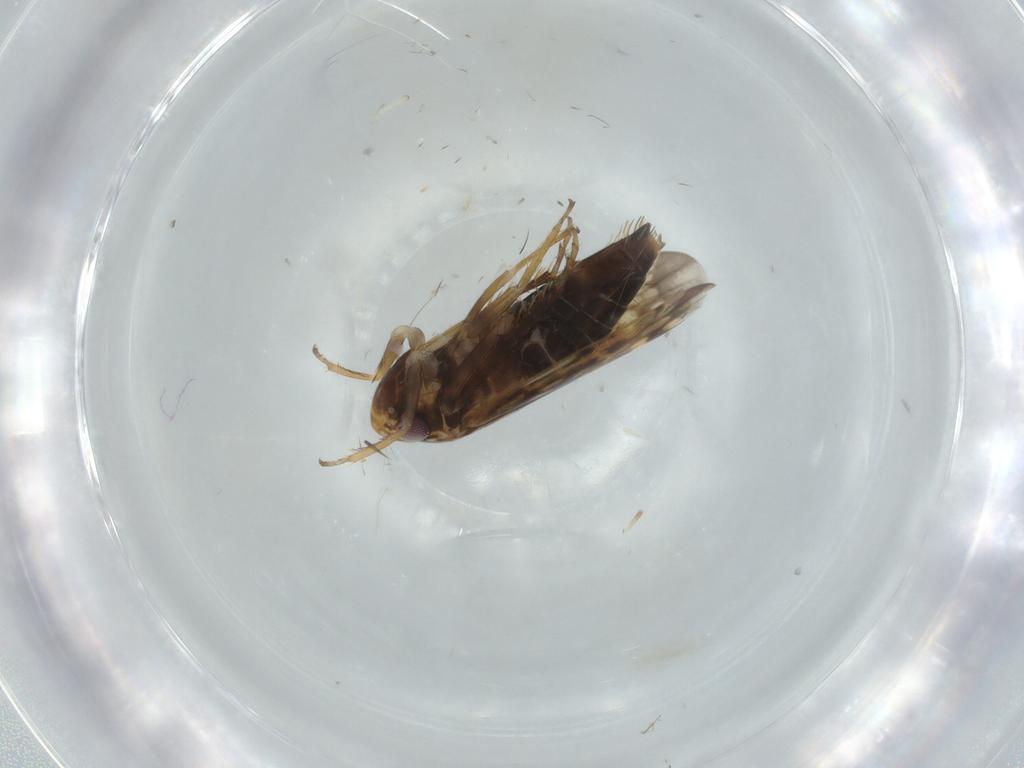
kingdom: Animalia
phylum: Arthropoda
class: Insecta
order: Hemiptera
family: Cicadellidae
